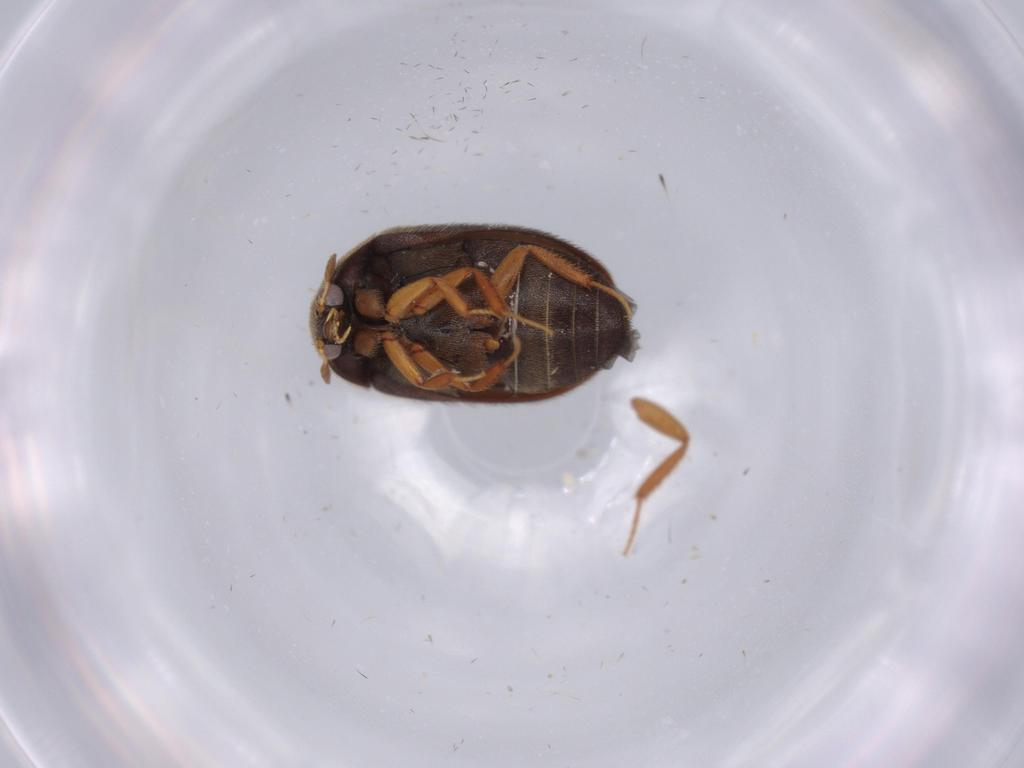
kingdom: Animalia
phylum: Arthropoda
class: Insecta
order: Coleoptera
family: Dermestidae
